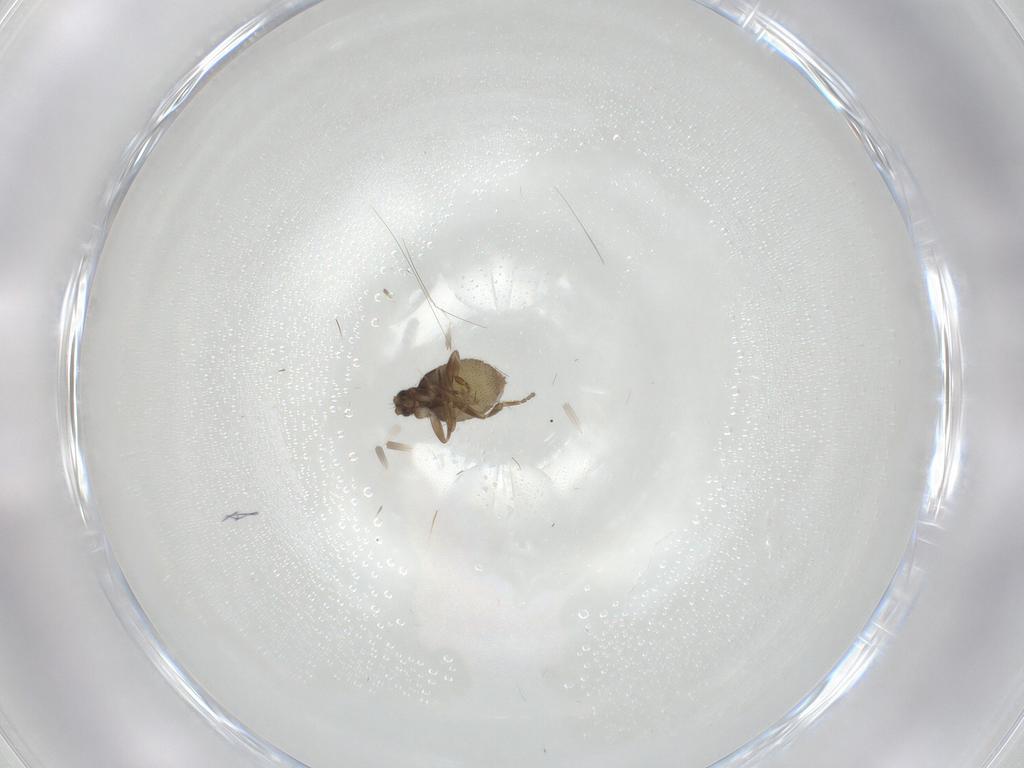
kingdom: Animalia
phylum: Arthropoda
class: Insecta
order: Diptera
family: Phoridae
